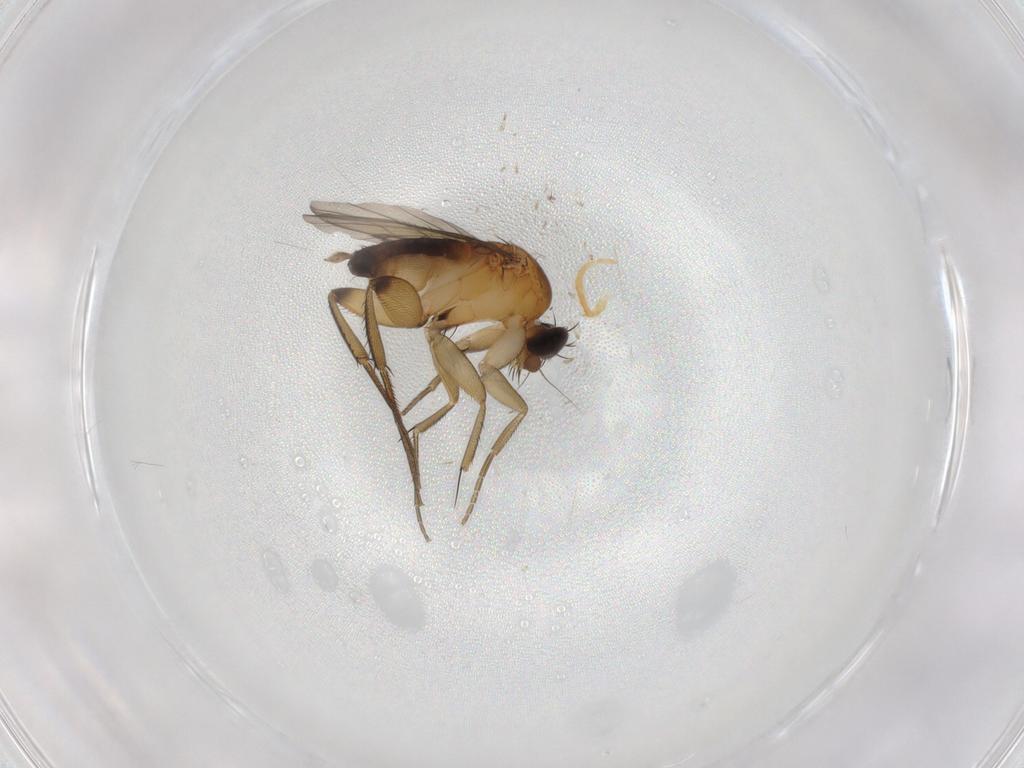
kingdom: Animalia
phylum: Arthropoda
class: Insecta
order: Diptera
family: Phoridae
